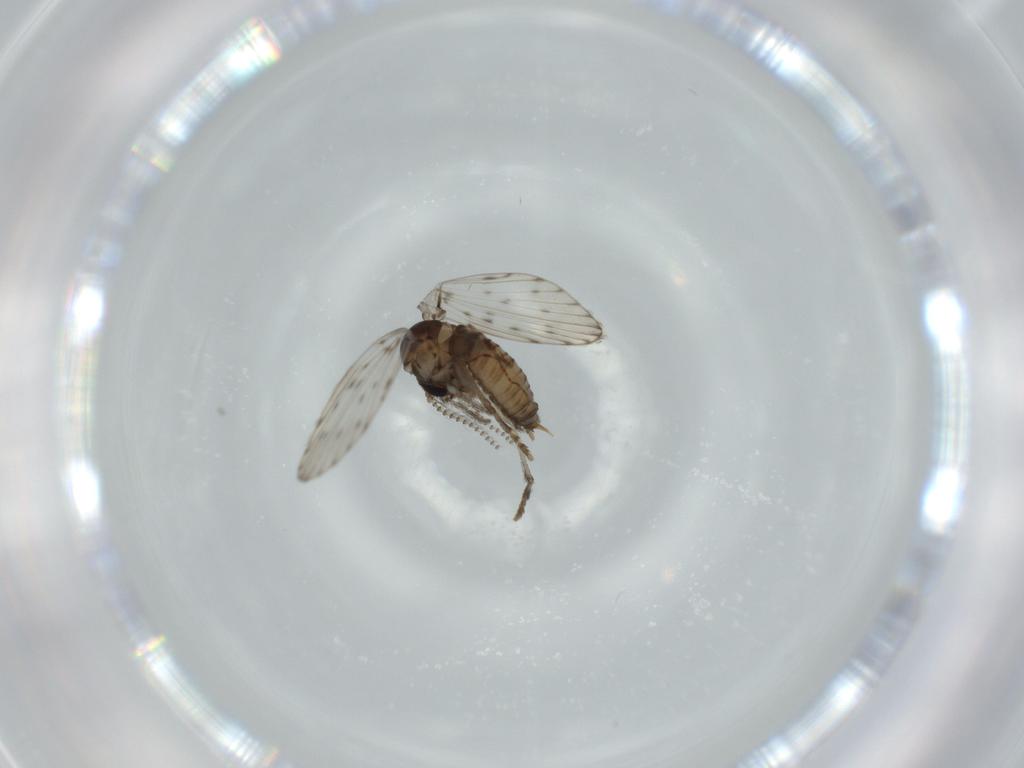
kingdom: Animalia
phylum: Arthropoda
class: Insecta
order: Diptera
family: Psychodidae
